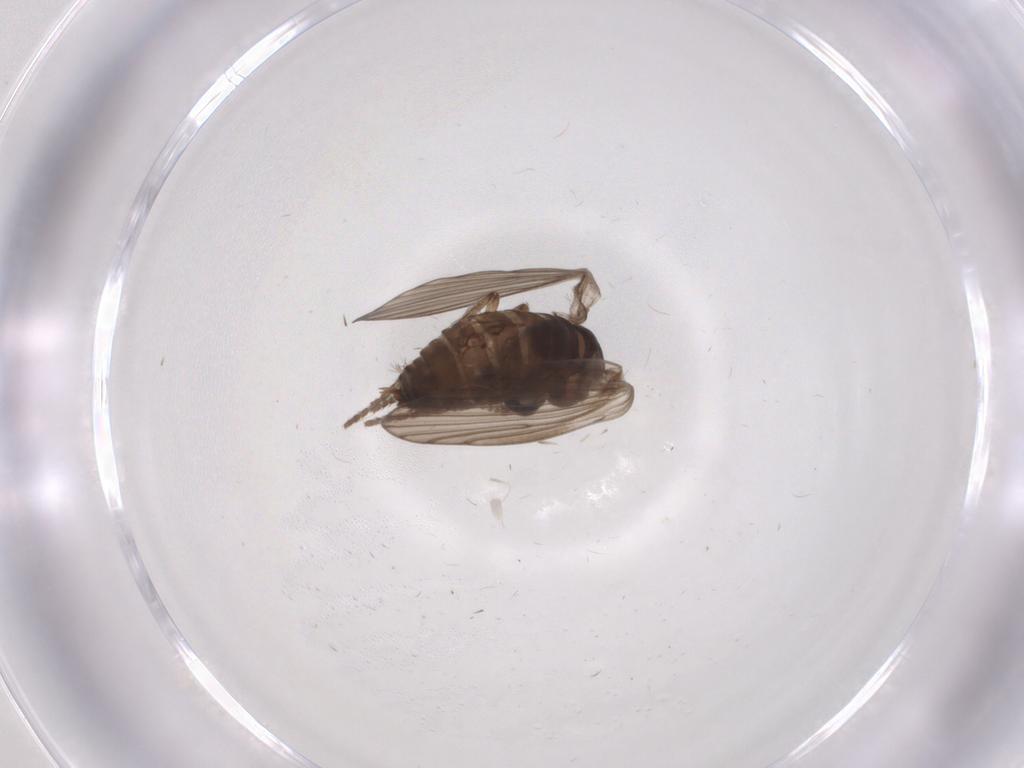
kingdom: Animalia
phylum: Arthropoda
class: Insecta
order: Diptera
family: Psychodidae
